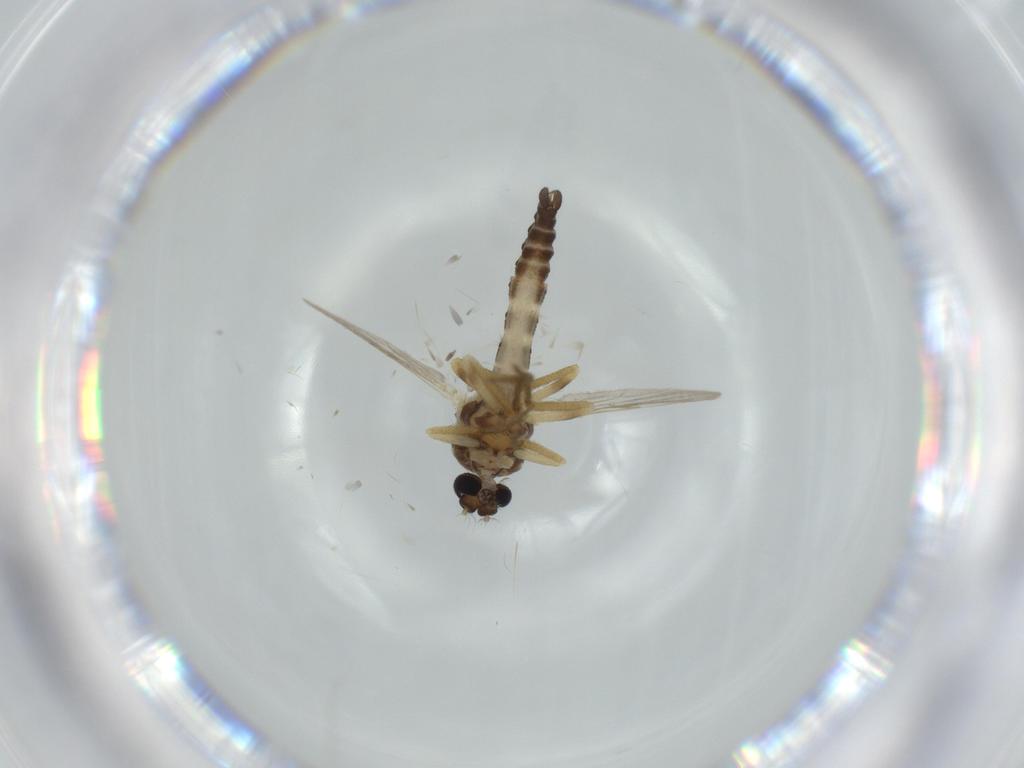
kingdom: Animalia
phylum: Arthropoda
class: Insecta
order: Diptera
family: Ceratopogonidae
